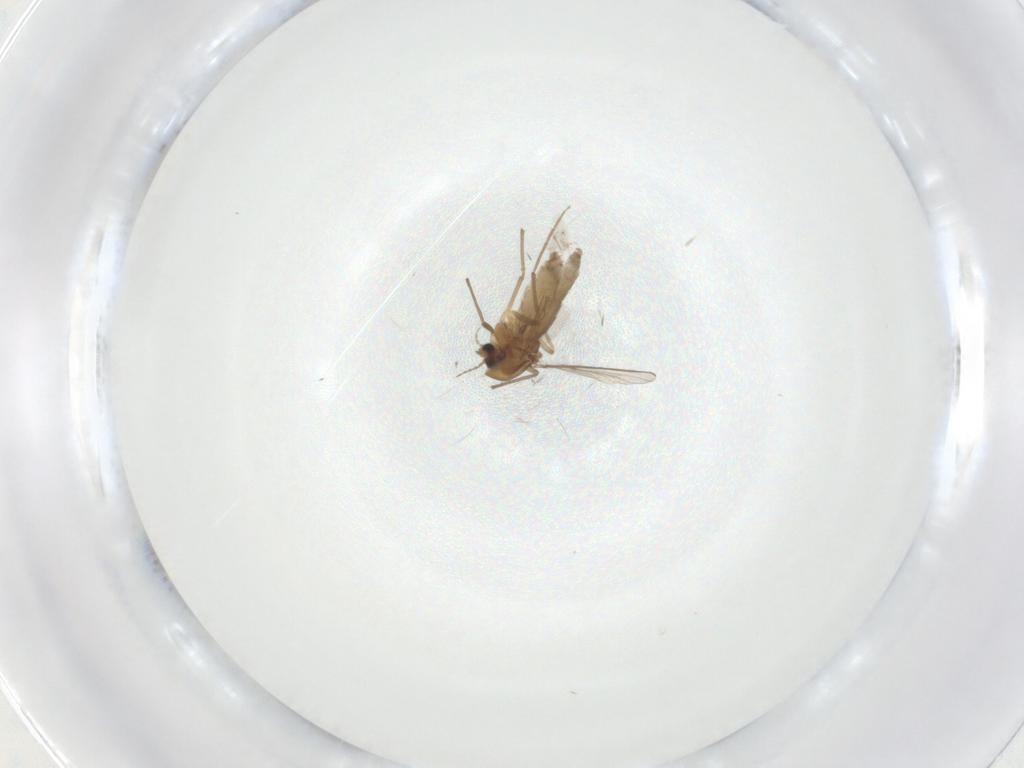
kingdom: Animalia
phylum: Arthropoda
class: Insecta
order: Diptera
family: Chironomidae
